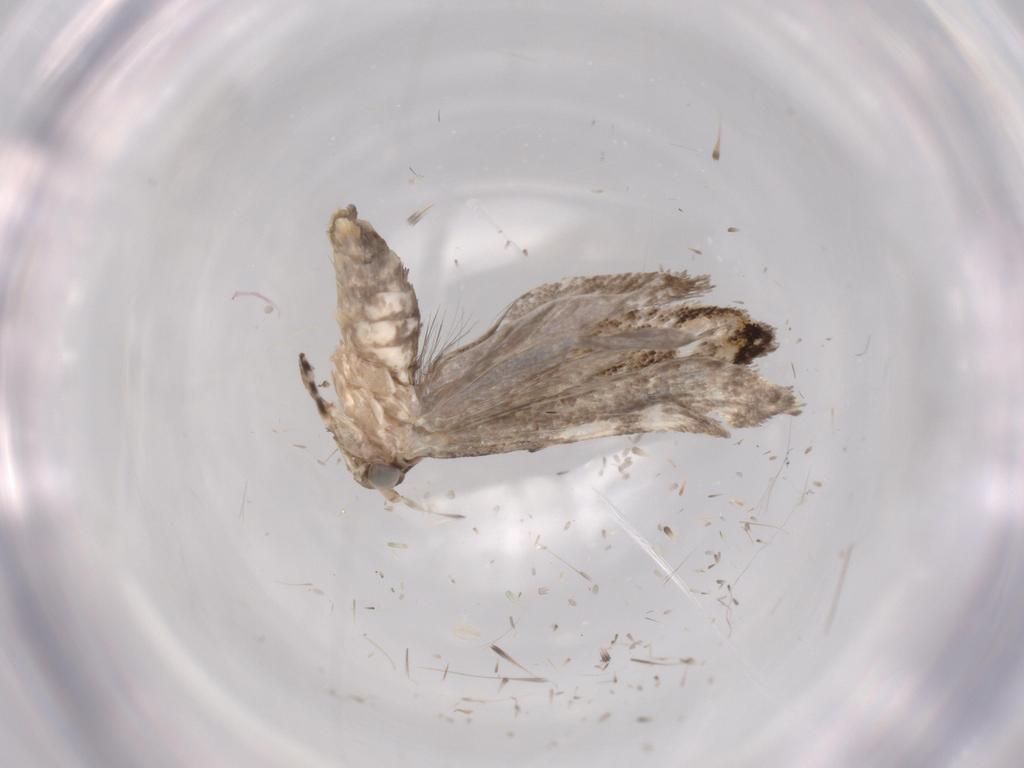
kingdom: Animalia
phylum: Arthropoda
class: Insecta
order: Lepidoptera
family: Tineidae
